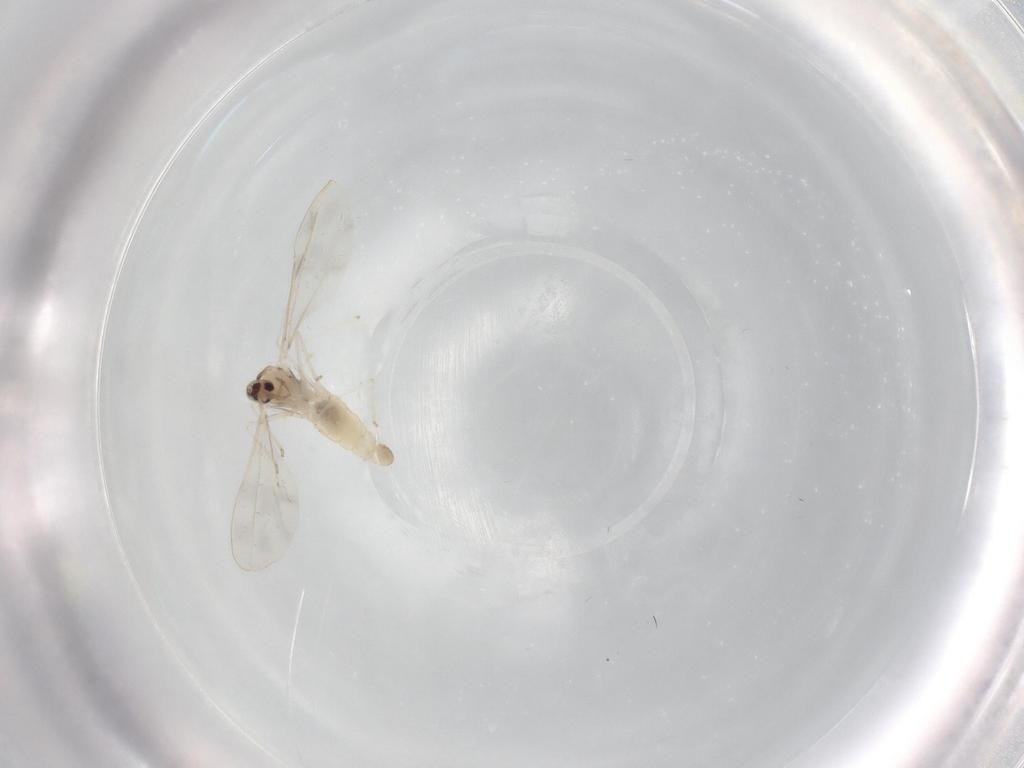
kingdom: Animalia
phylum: Arthropoda
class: Insecta
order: Diptera
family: Cecidomyiidae
